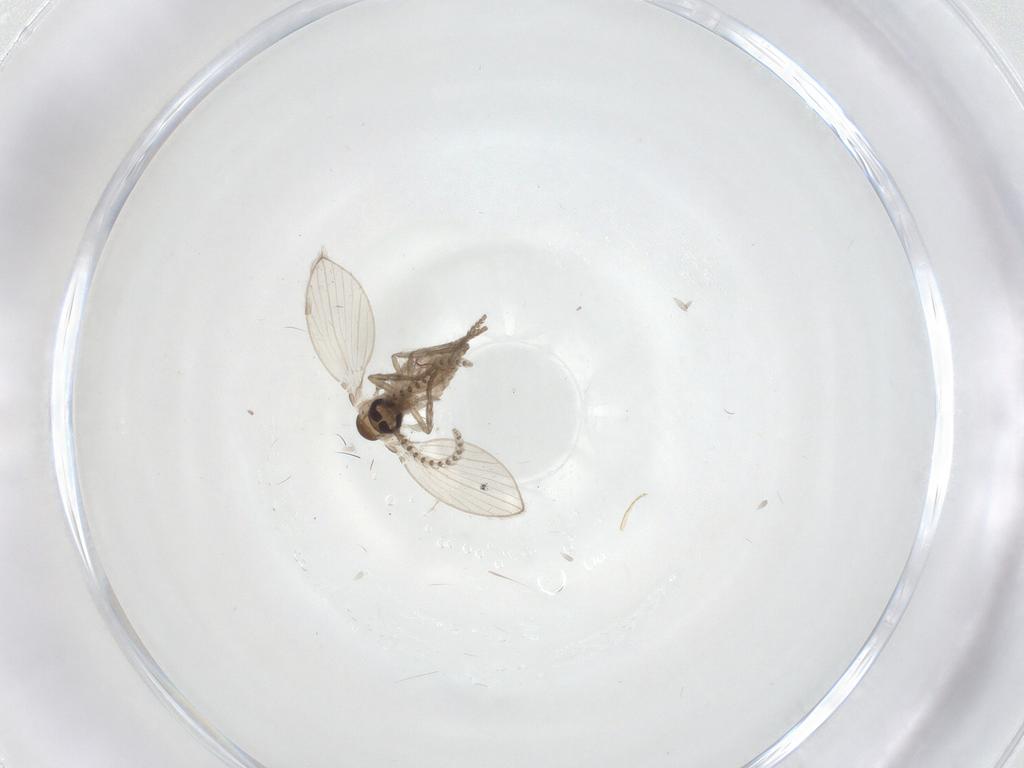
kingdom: Animalia
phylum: Arthropoda
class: Insecta
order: Diptera
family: Psychodidae
